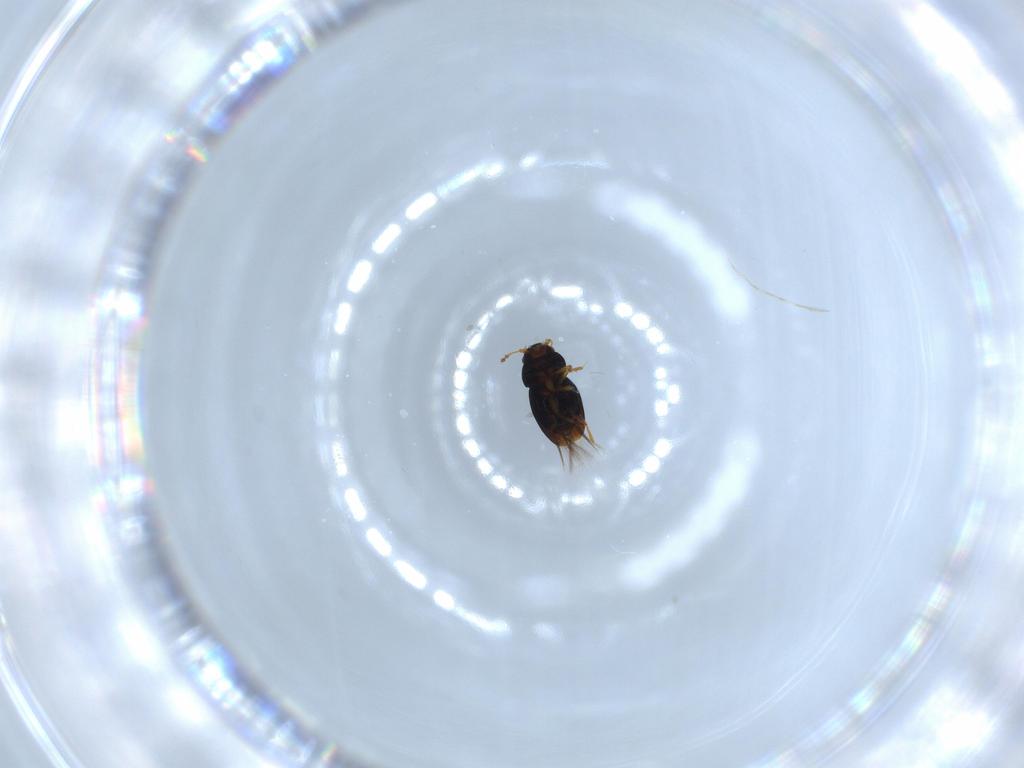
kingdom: Animalia
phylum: Arthropoda
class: Insecta
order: Coleoptera
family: Ptiliidae
